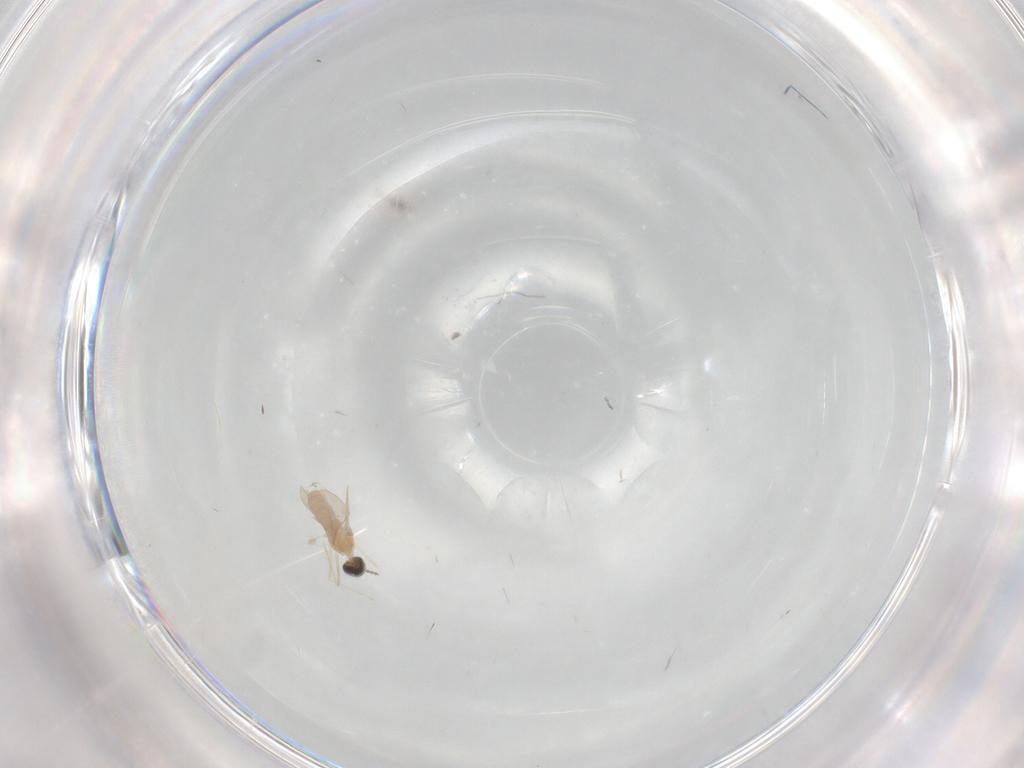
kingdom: Animalia
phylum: Arthropoda
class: Insecta
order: Diptera
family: Cecidomyiidae
